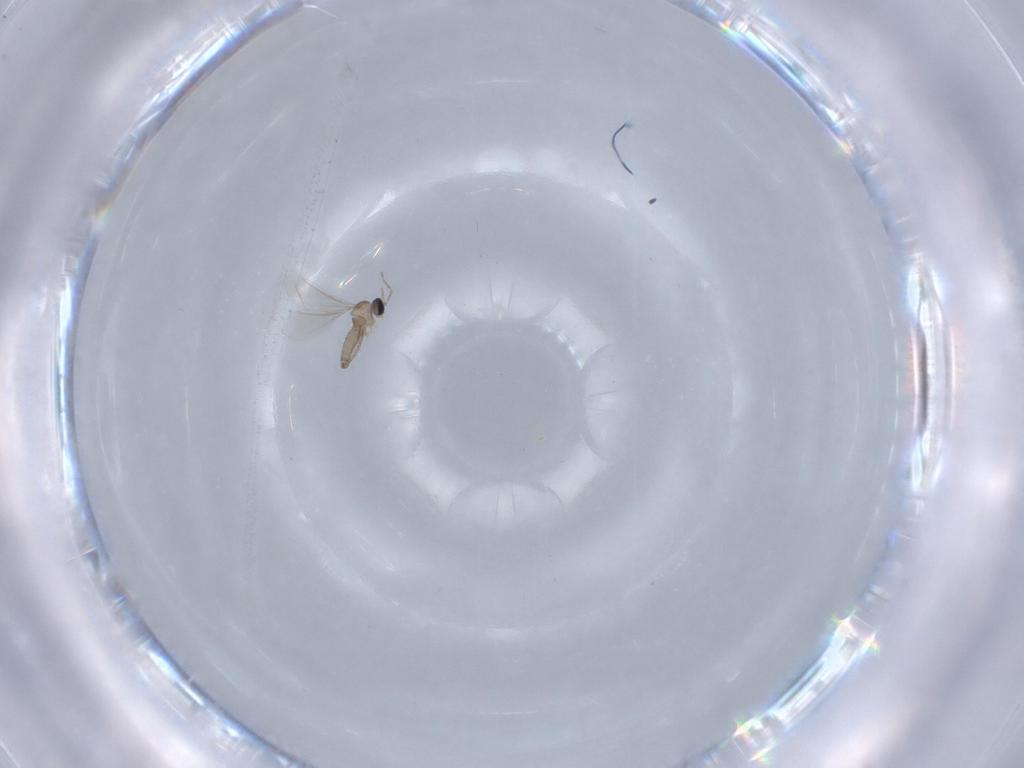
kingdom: Animalia
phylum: Arthropoda
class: Insecta
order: Diptera
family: Cecidomyiidae
